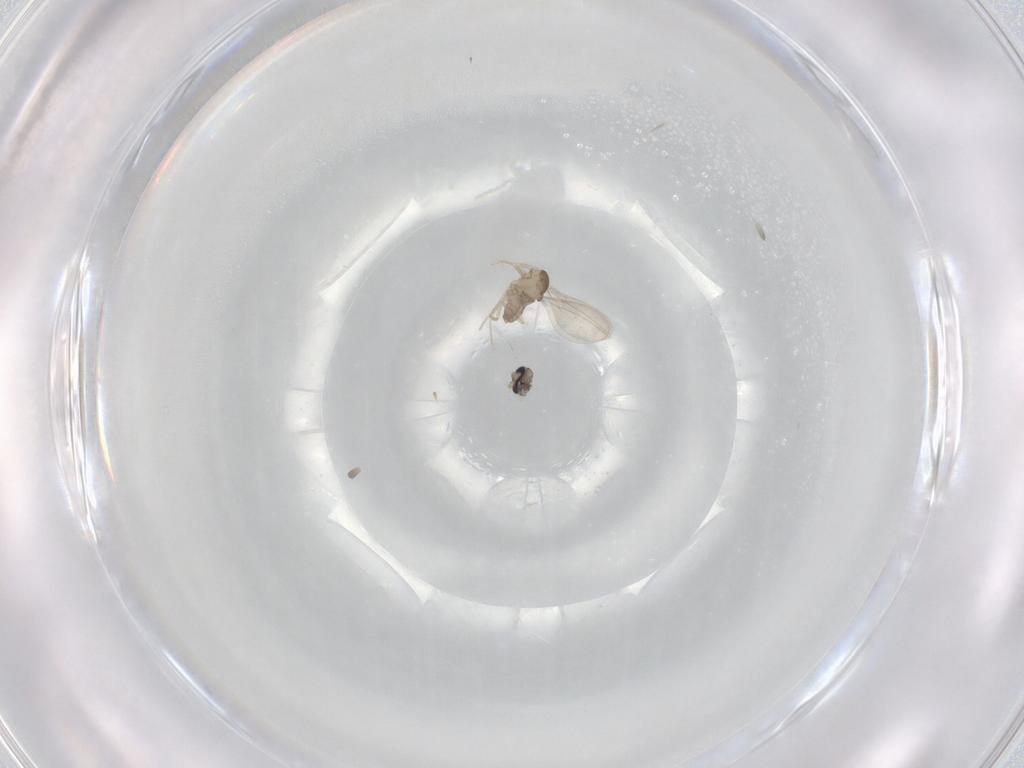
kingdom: Animalia
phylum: Arthropoda
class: Insecta
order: Diptera
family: Cecidomyiidae
